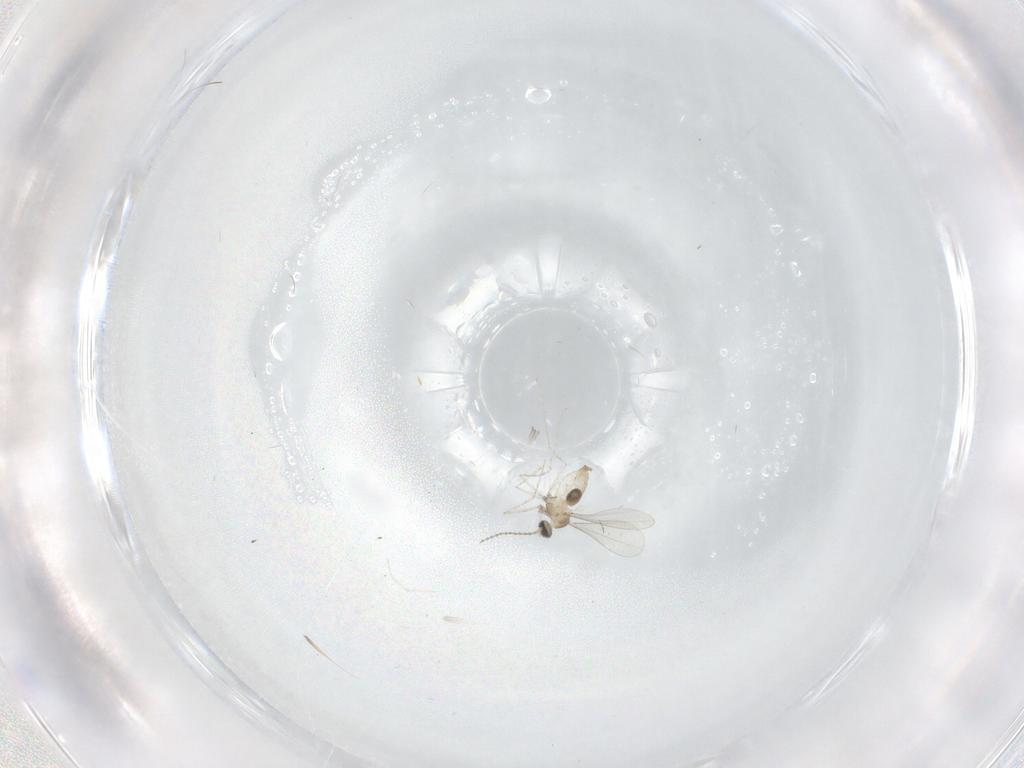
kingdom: Animalia
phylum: Arthropoda
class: Insecta
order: Diptera
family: Cecidomyiidae
